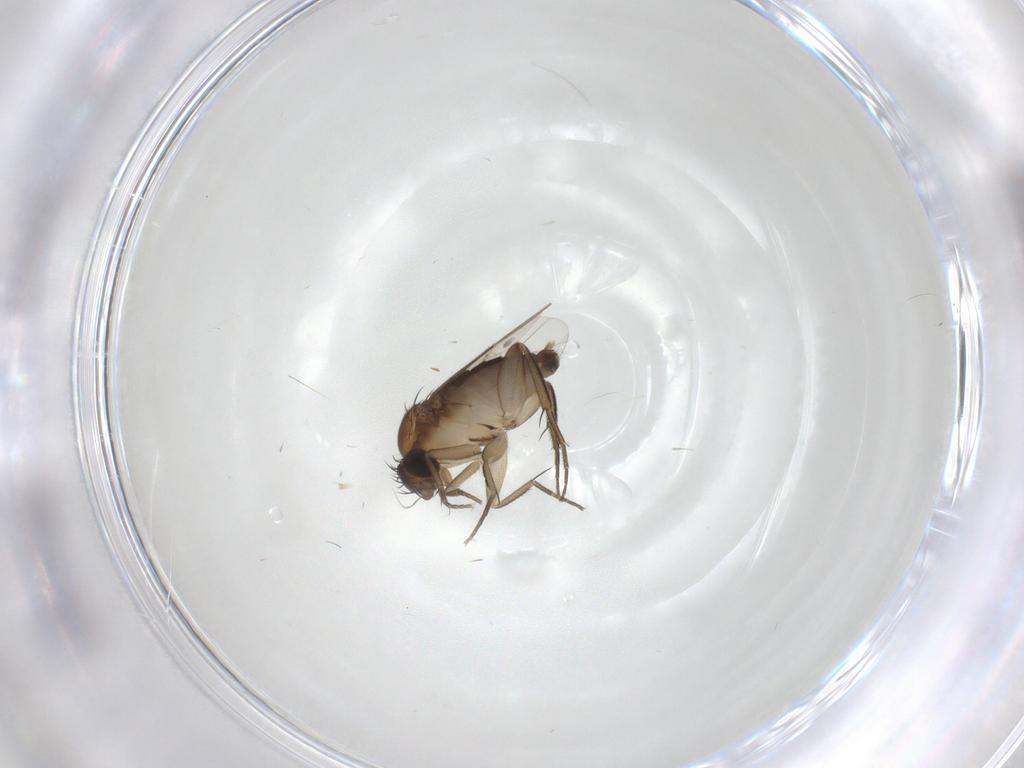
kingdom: Animalia
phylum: Arthropoda
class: Insecta
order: Diptera
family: Phoridae
